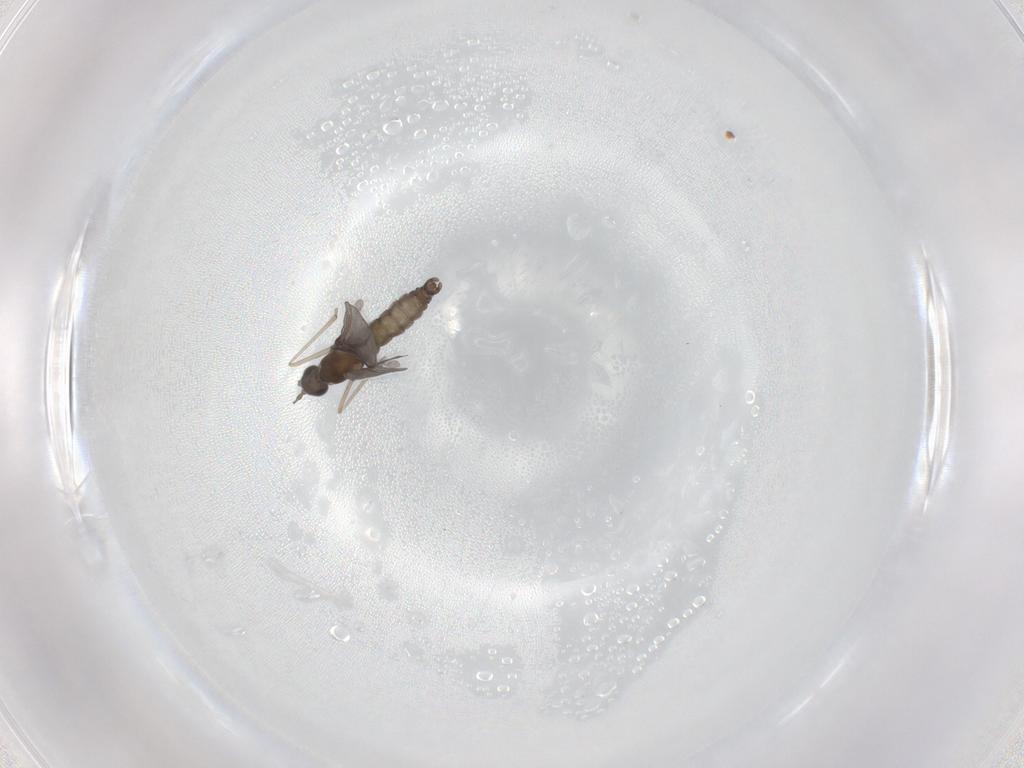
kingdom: Animalia
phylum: Arthropoda
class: Insecta
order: Diptera
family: Cecidomyiidae
